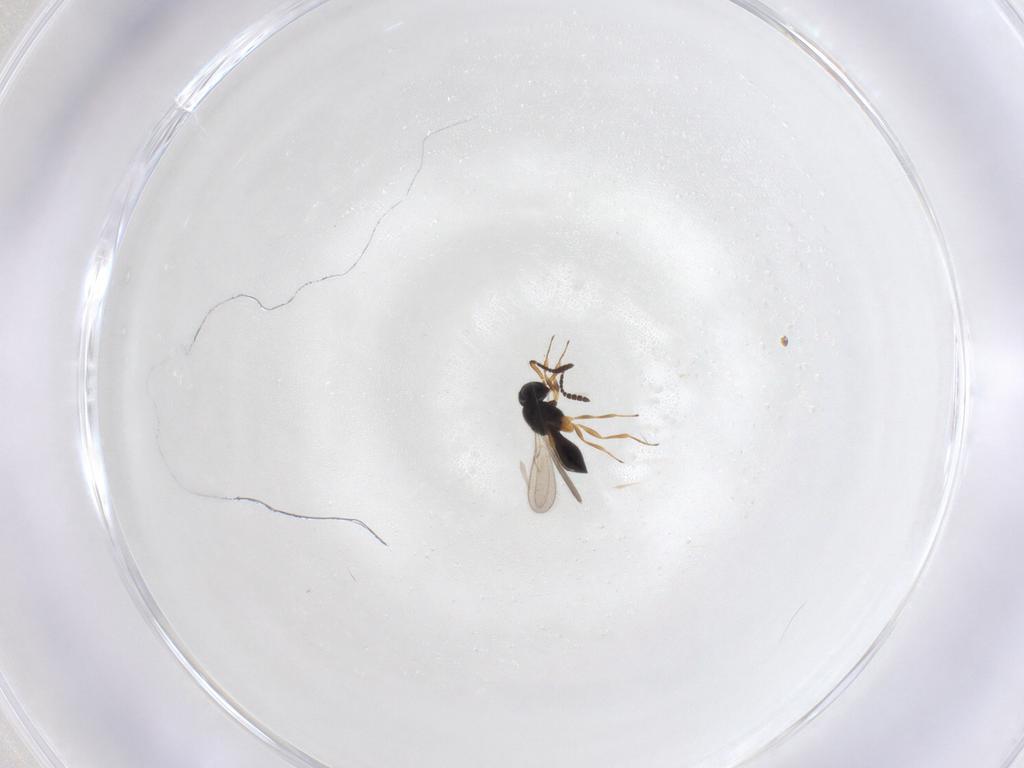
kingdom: Animalia
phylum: Arthropoda
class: Insecta
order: Hymenoptera
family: Scelionidae
